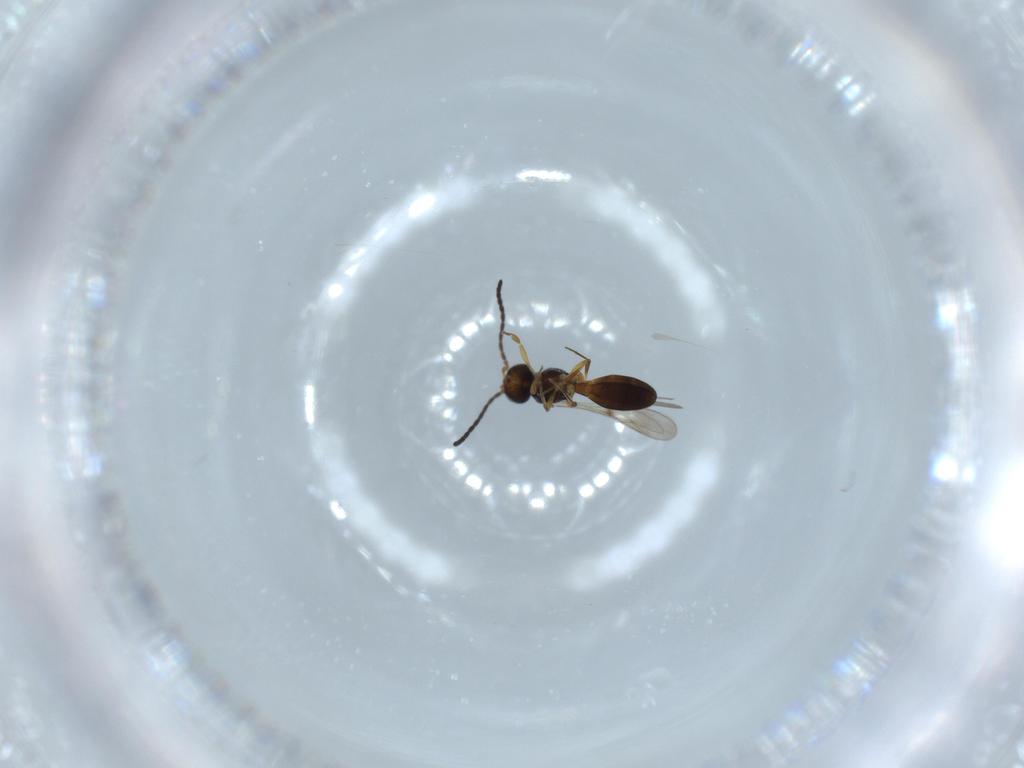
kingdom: Animalia
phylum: Arthropoda
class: Insecta
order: Hymenoptera
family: Scelionidae
